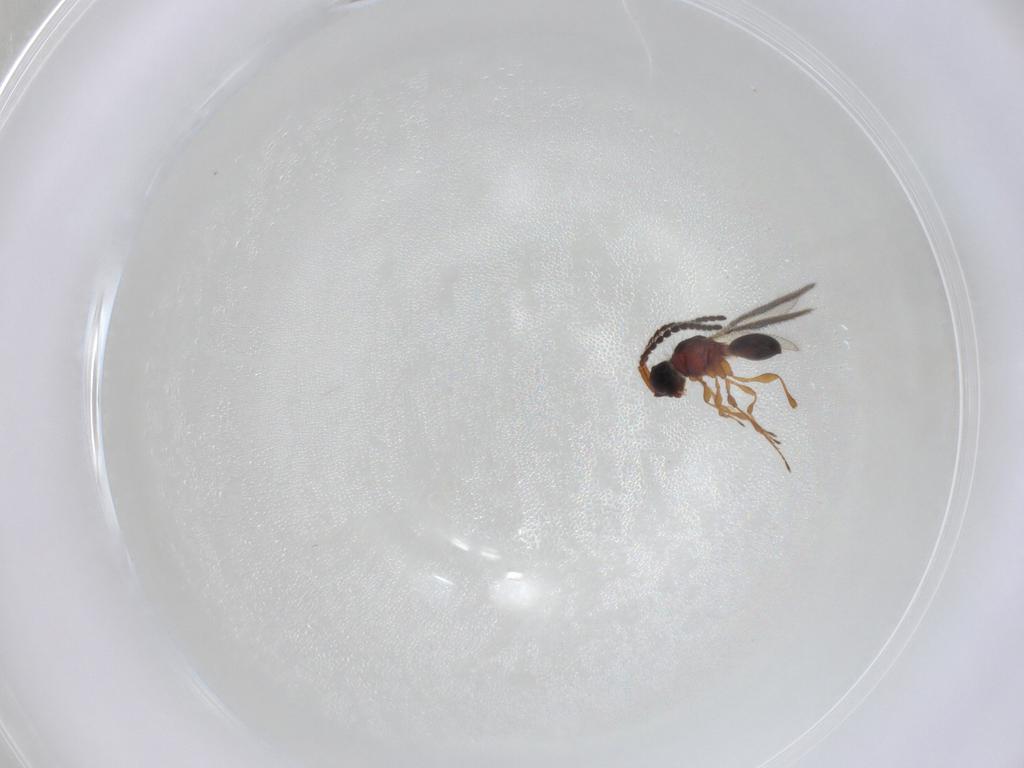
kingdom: Animalia
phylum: Arthropoda
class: Insecta
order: Hymenoptera
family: Diapriidae
